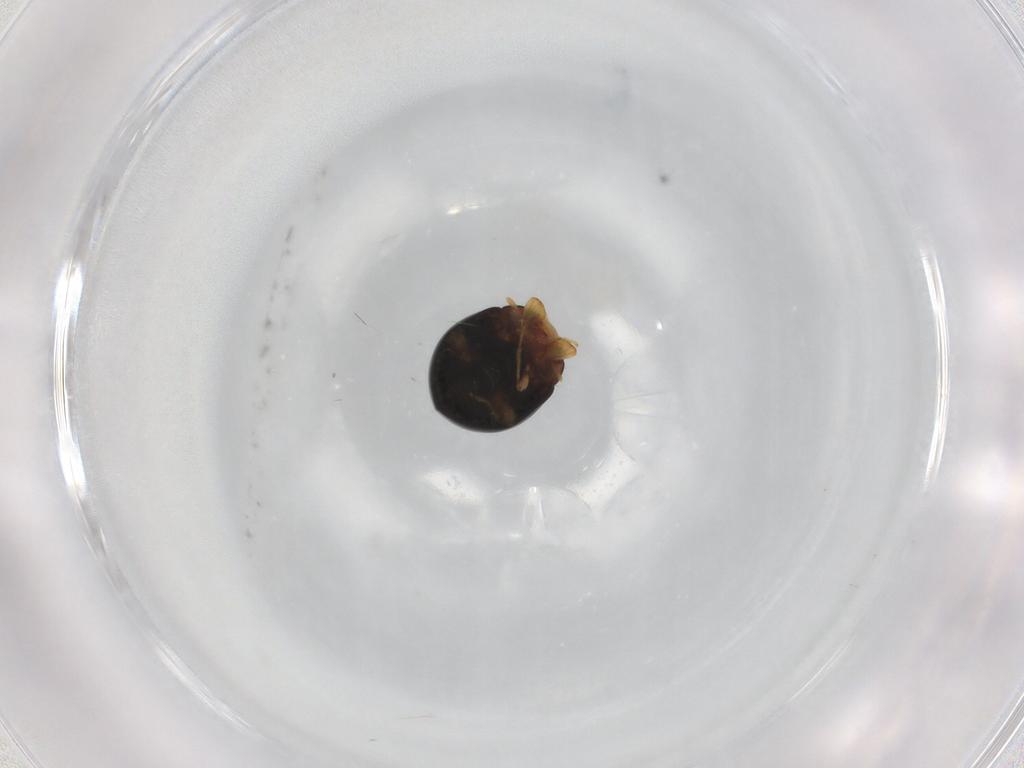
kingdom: Animalia
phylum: Arthropoda
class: Insecta
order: Coleoptera
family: Coccinellidae
